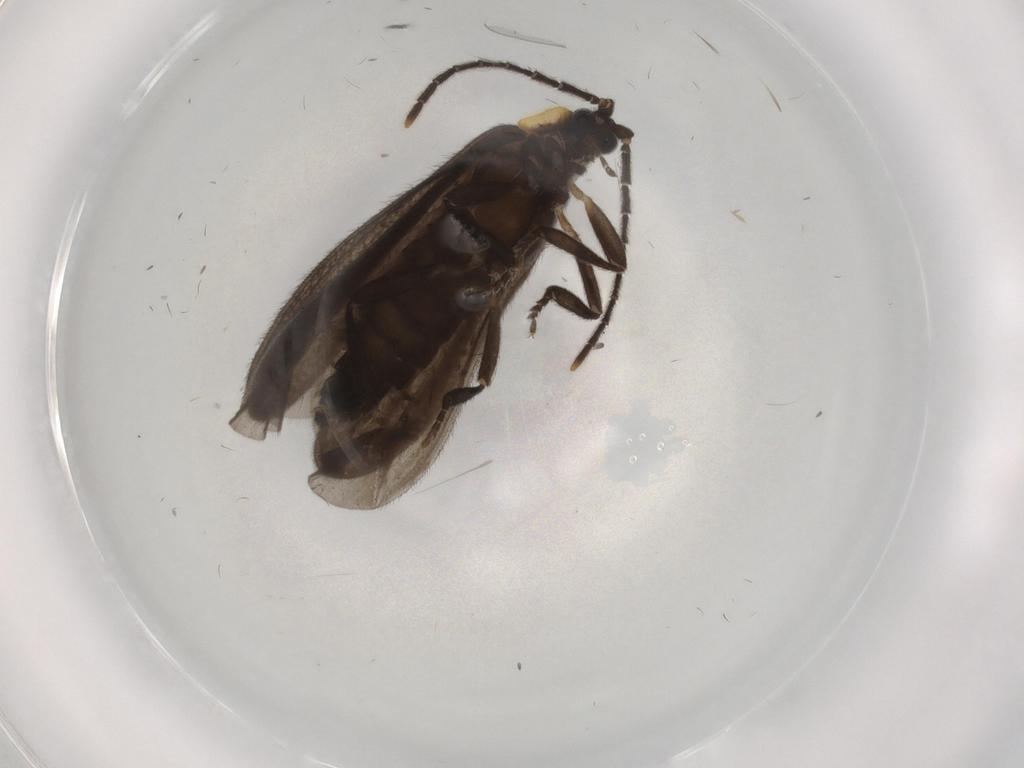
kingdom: Animalia
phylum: Arthropoda
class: Insecta
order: Coleoptera
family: Lycidae
